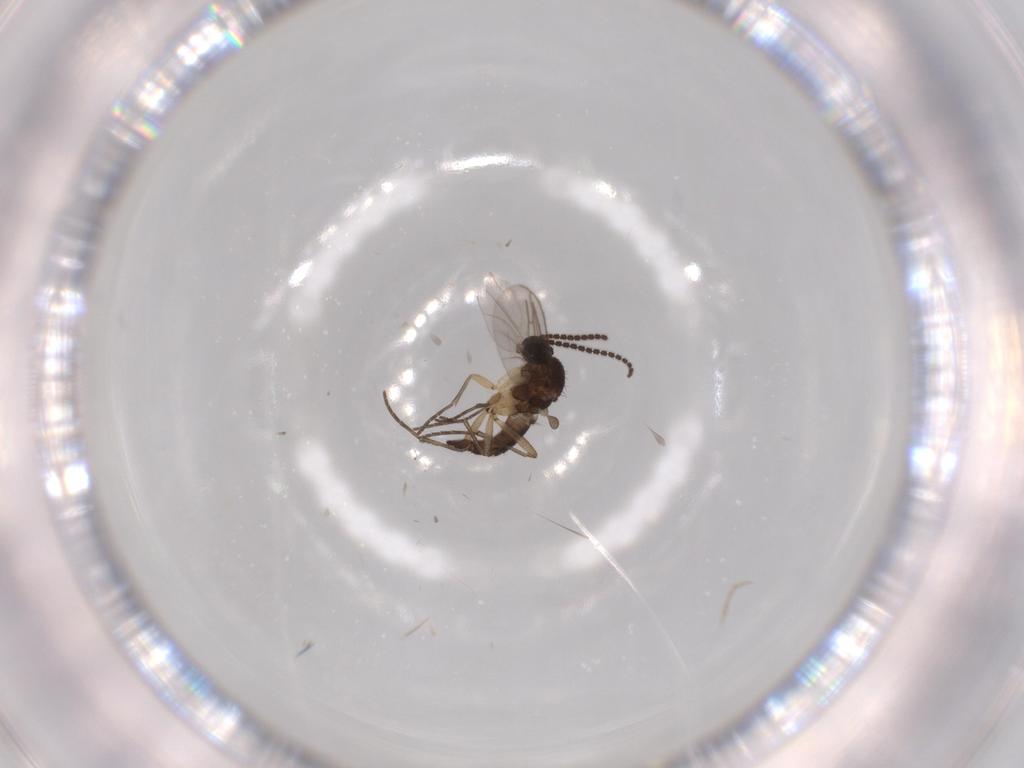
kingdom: Animalia
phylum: Arthropoda
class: Insecta
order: Diptera
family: Sciaridae
